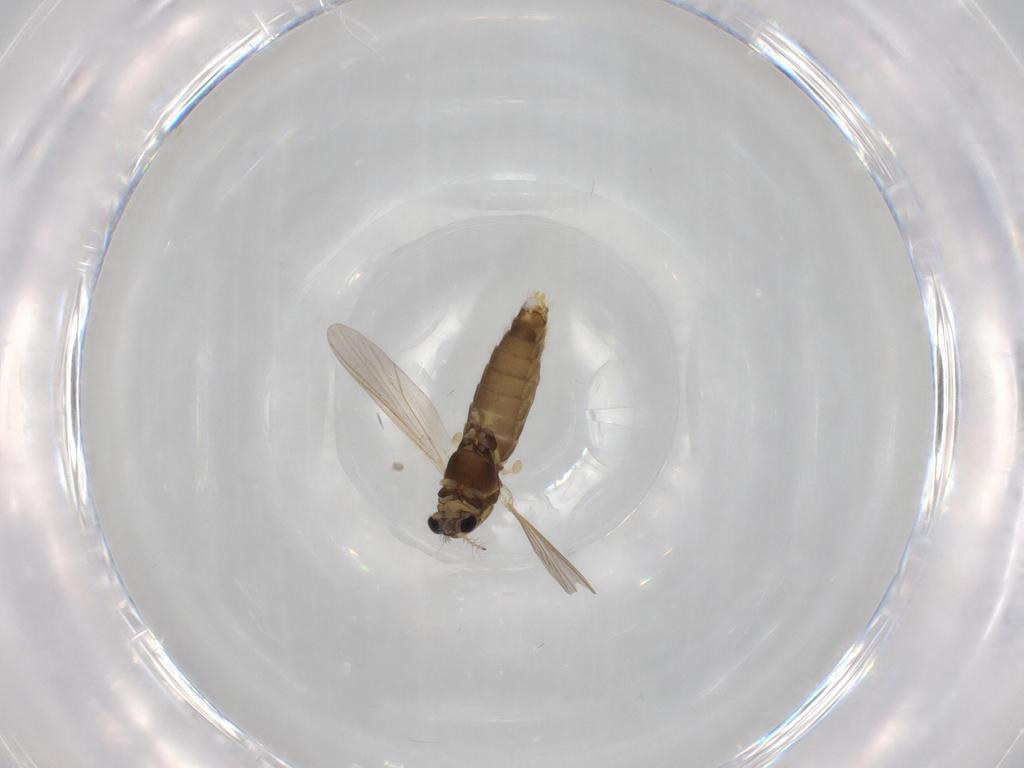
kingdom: Animalia
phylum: Arthropoda
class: Insecta
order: Diptera
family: Chironomidae
